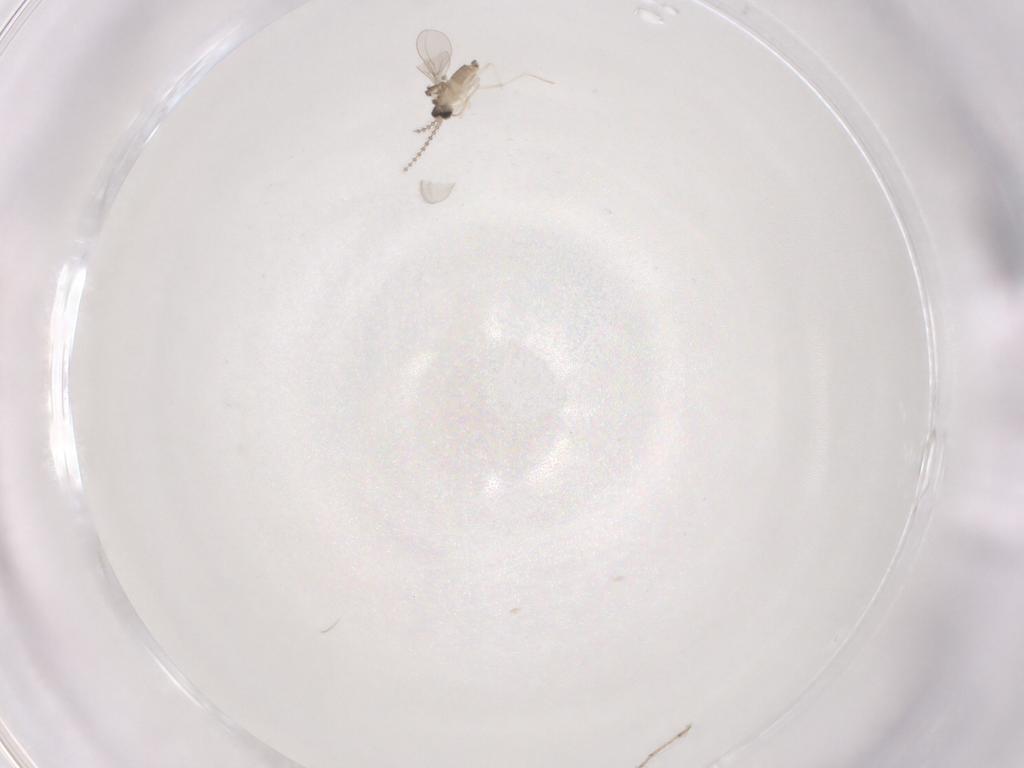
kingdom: Animalia
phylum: Arthropoda
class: Insecta
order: Diptera
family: Cecidomyiidae
